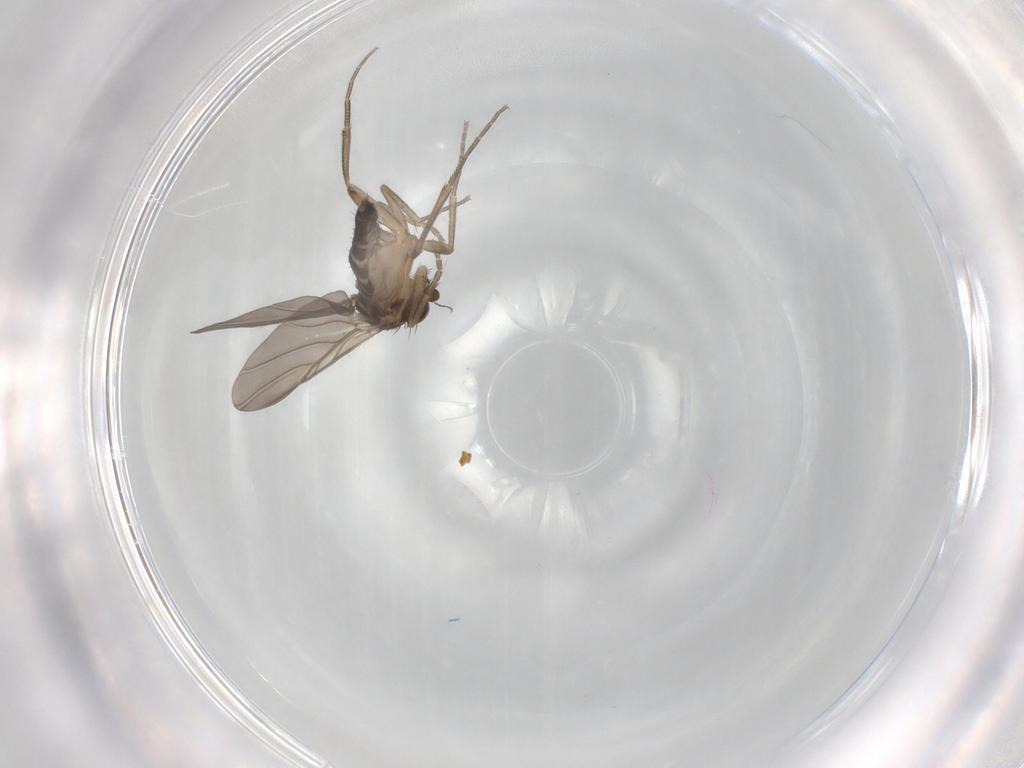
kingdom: Animalia
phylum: Arthropoda
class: Insecta
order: Diptera
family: Phoridae
